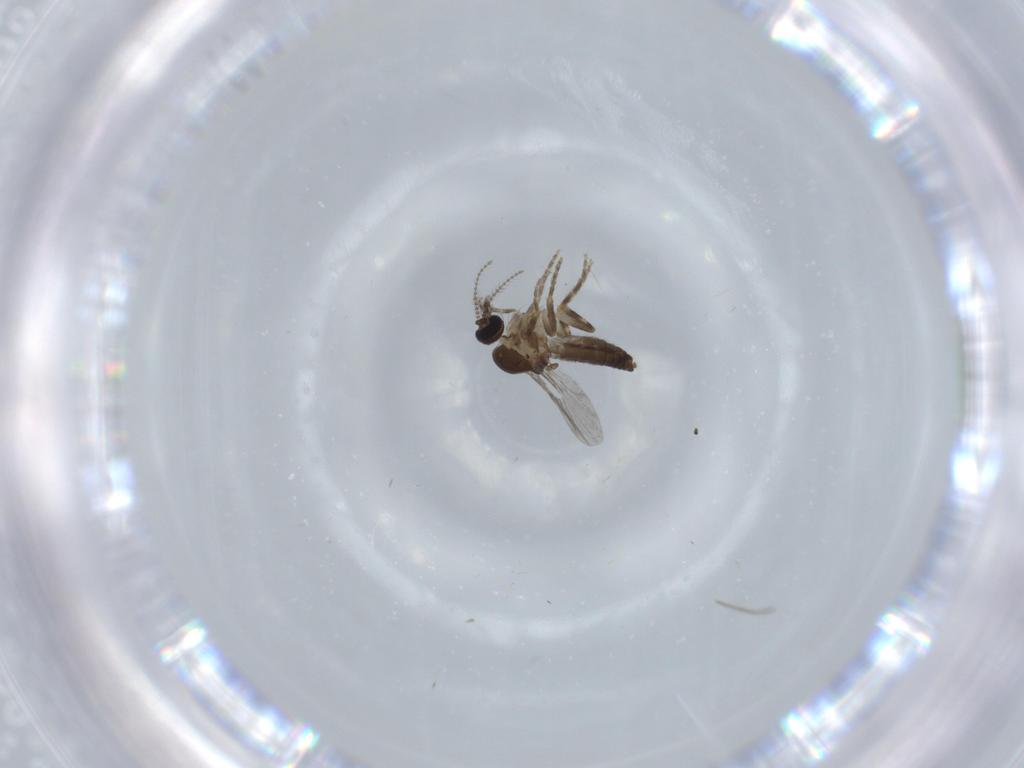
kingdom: Animalia
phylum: Arthropoda
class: Insecta
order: Diptera
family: Ceratopogonidae
